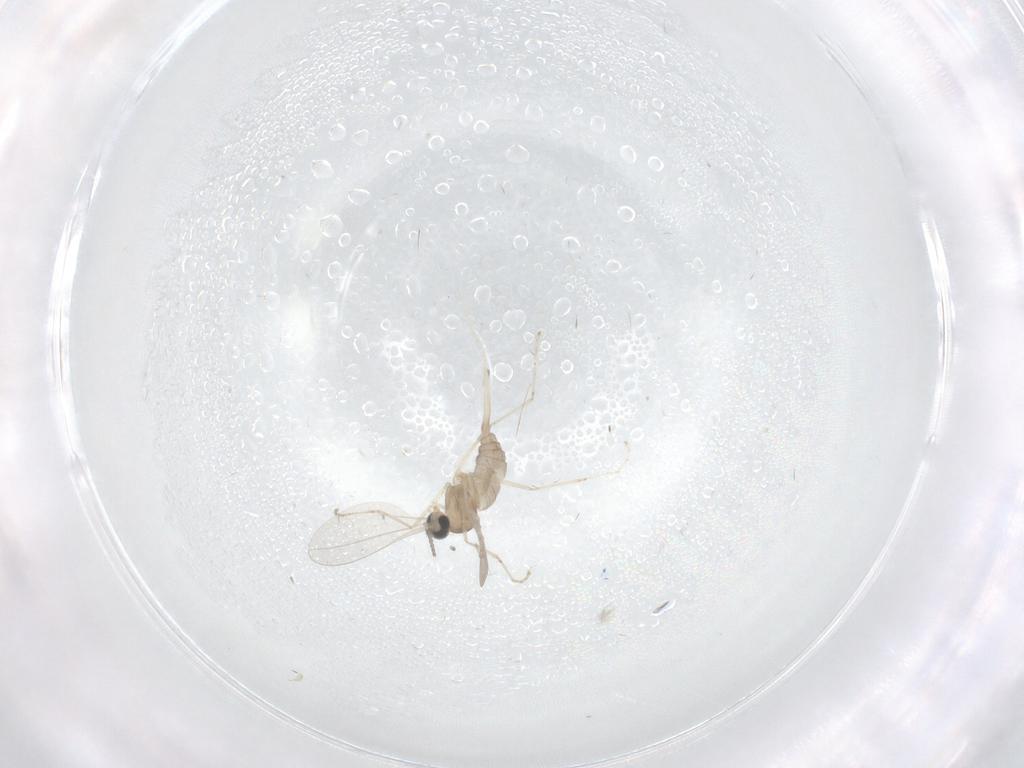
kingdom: Animalia
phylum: Arthropoda
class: Insecta
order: Diptera
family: Cecidomyiidae
